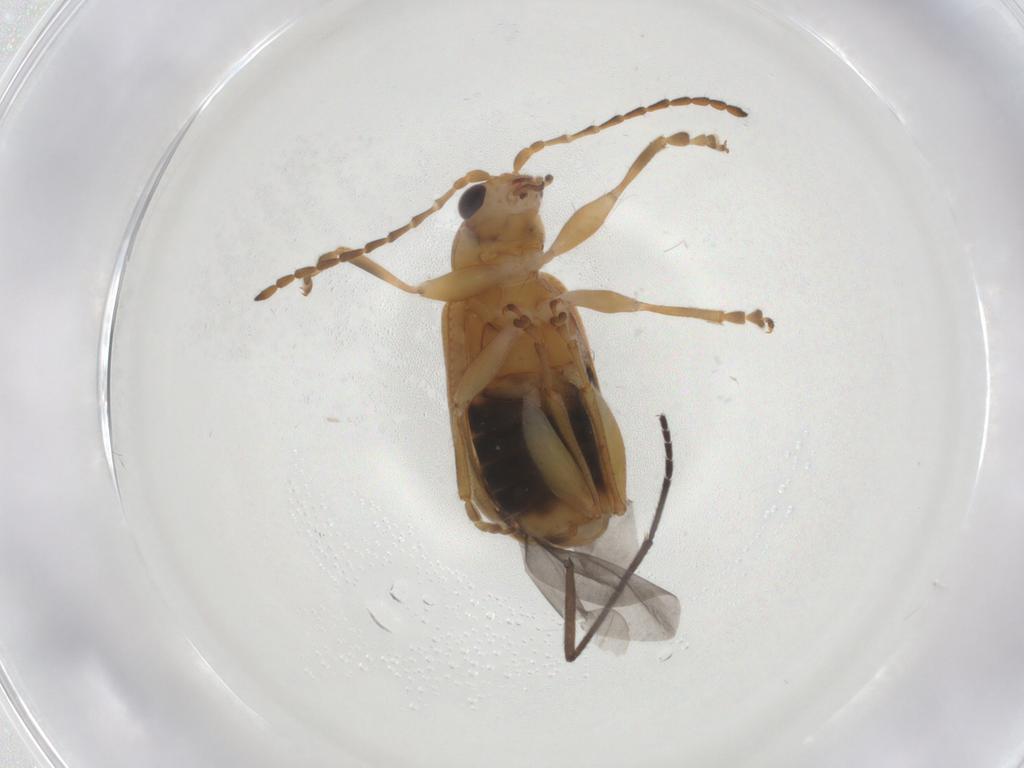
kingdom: Animalia
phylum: Arthropoda
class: Insecta
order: Coleoptera
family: Chrysomelidae
